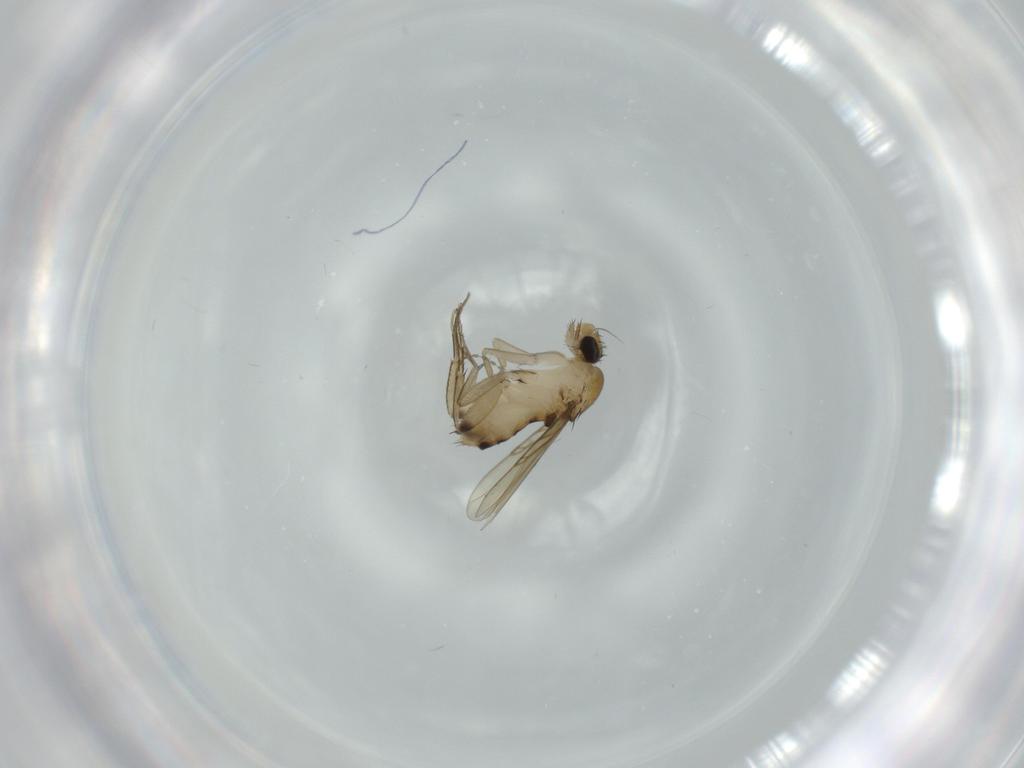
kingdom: Animalia
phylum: Arthropoda
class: Insecta
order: Diptera
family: Phoridae
